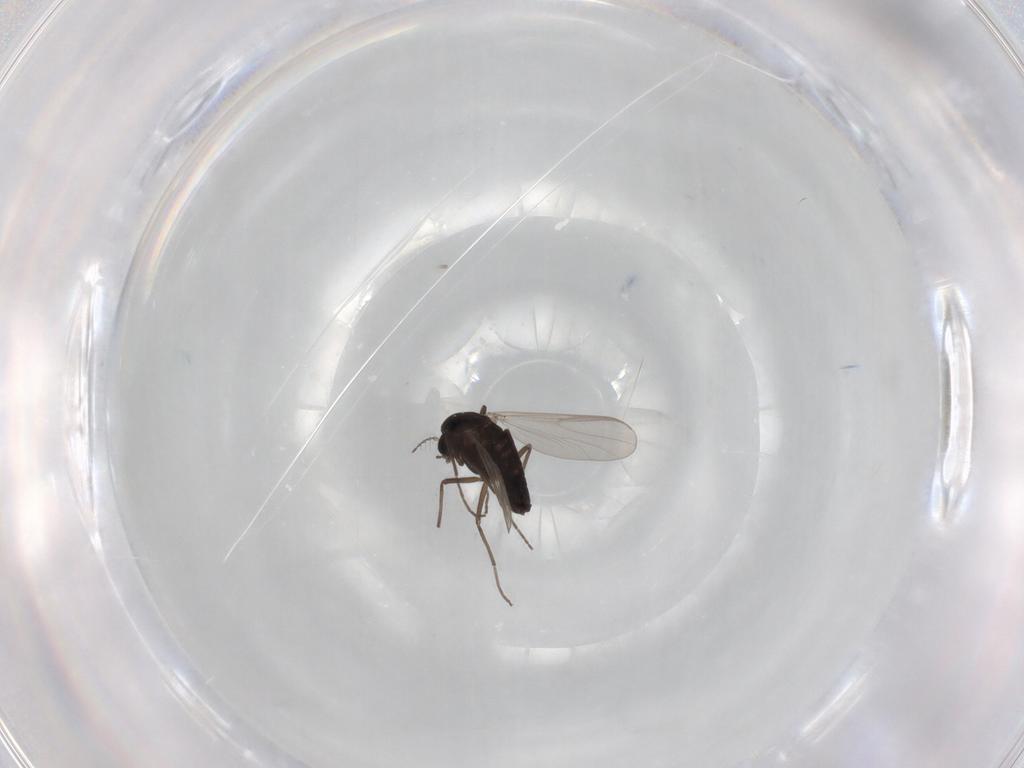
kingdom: Animalia
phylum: Arthropoda
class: Insecta
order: Diptera
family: Chironomidae
